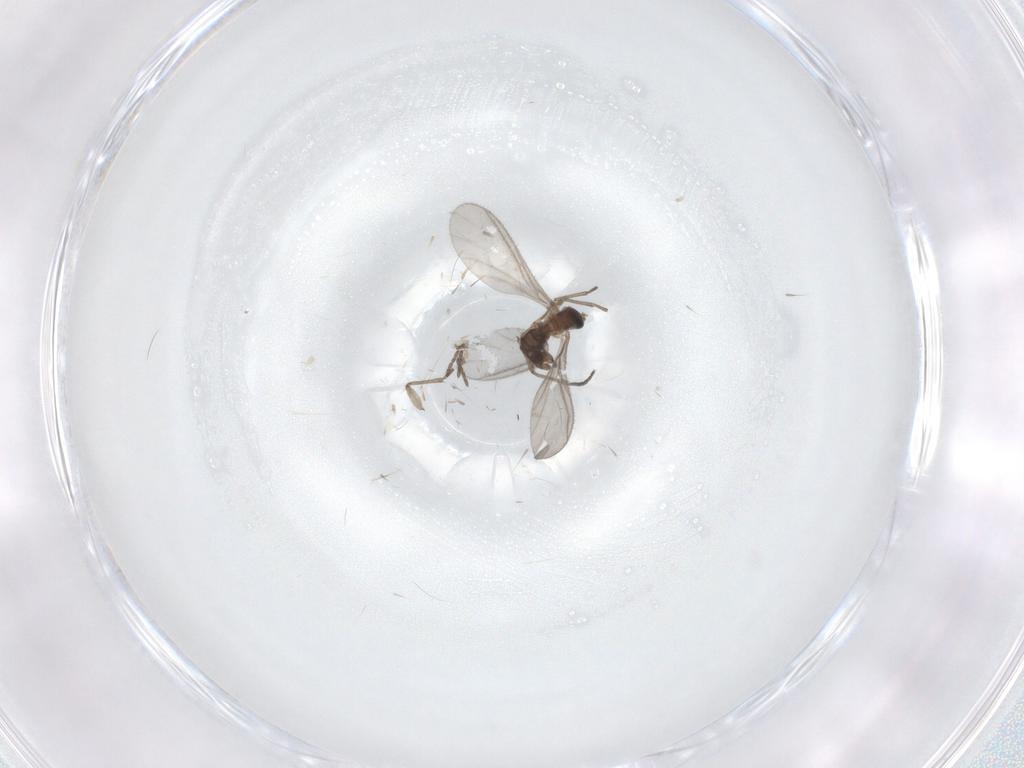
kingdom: Animalia
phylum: Arthropoda
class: Insecta
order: Diptera
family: Sciaridae
